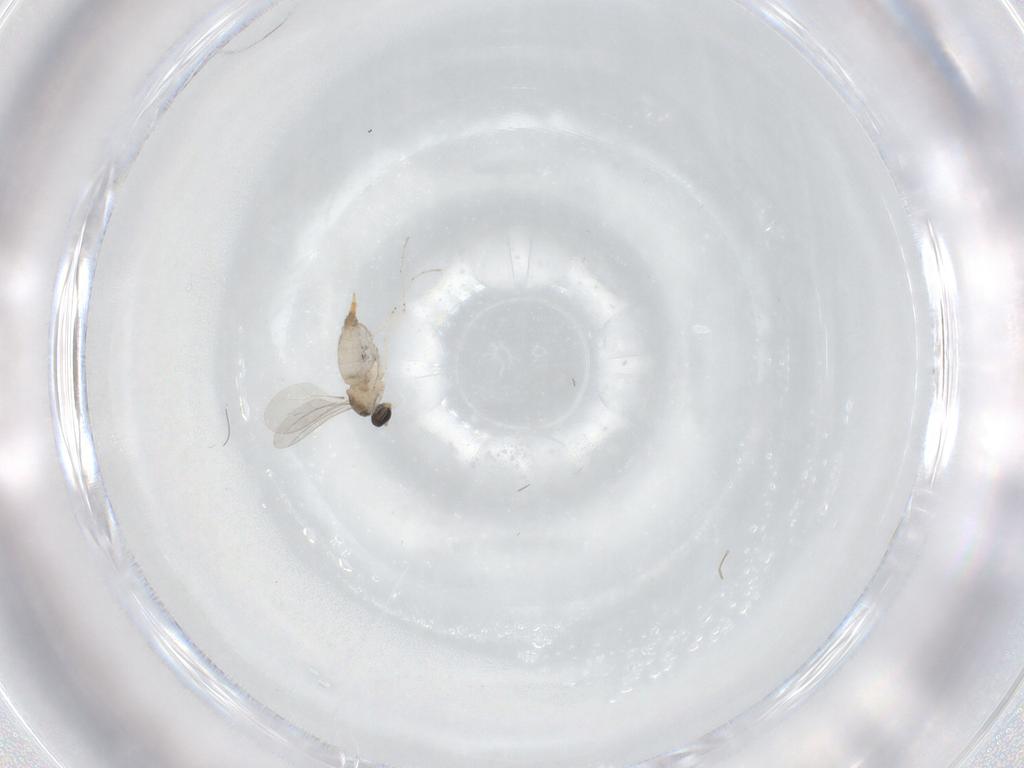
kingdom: Animalia
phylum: Arthropoda
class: Insecta
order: Diptera
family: Cecidomyiidae
